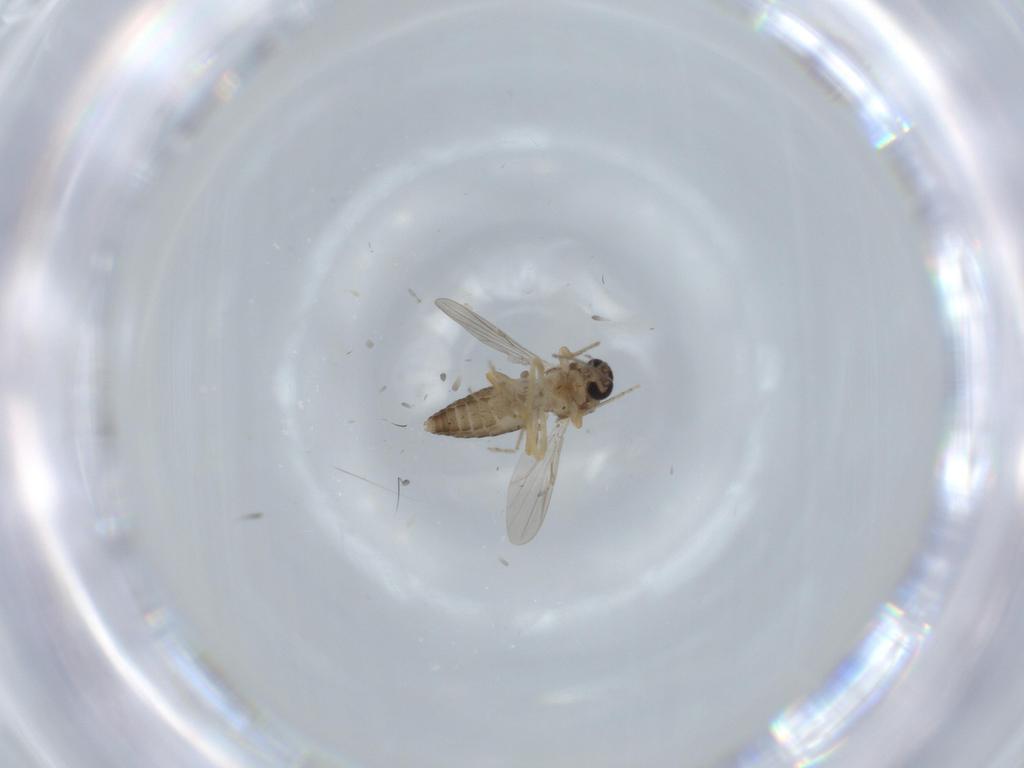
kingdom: Animalia
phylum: Arthropoda
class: Insecta
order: Diptera
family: Ceratopogonidae
